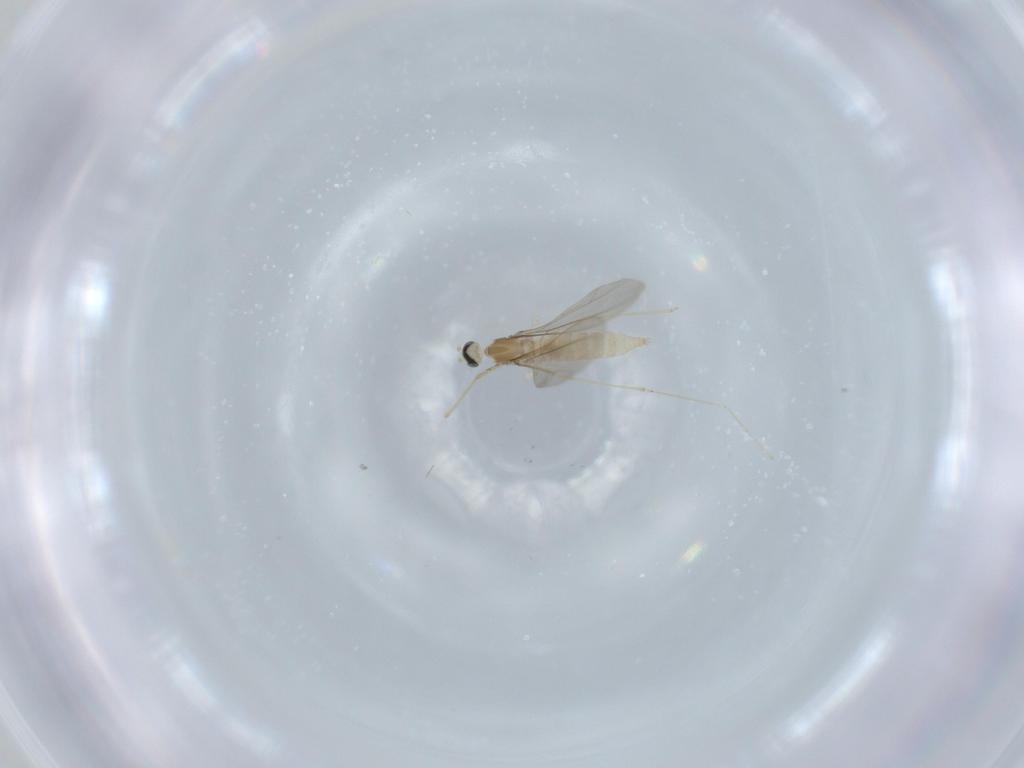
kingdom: Animalia
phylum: Arthropoda
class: Insecta
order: Diptera
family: Cecidomyiidae
